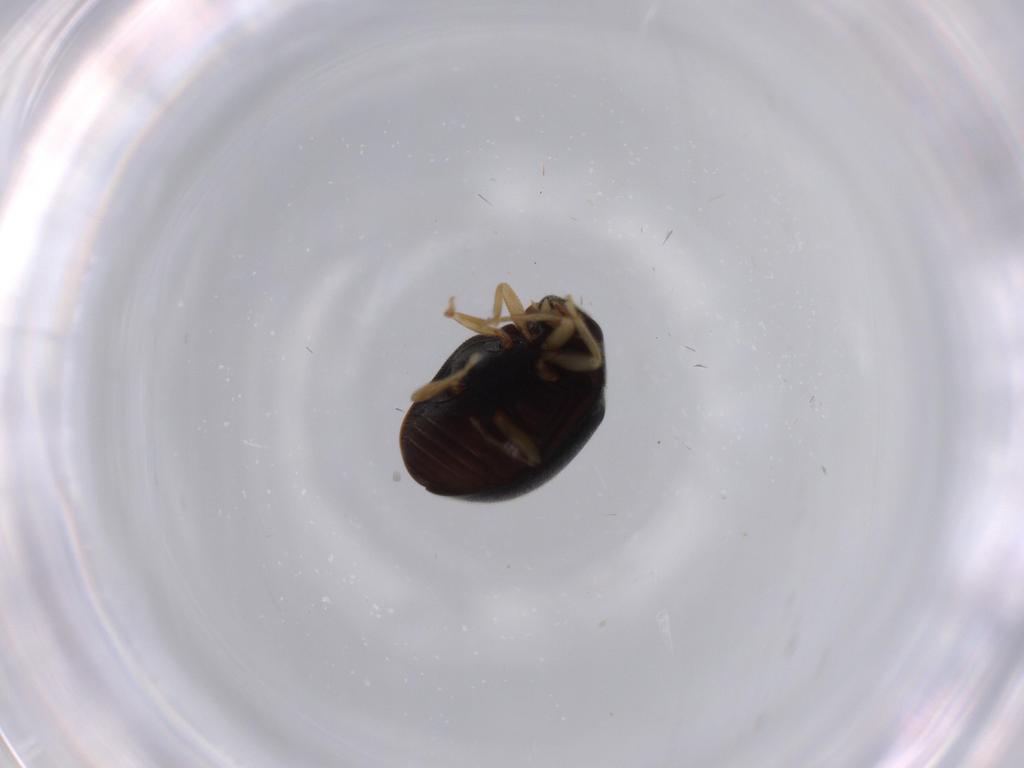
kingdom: Animalia
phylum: Arthropoda
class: Insecta
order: Coleoptera
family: Coccinellidae
